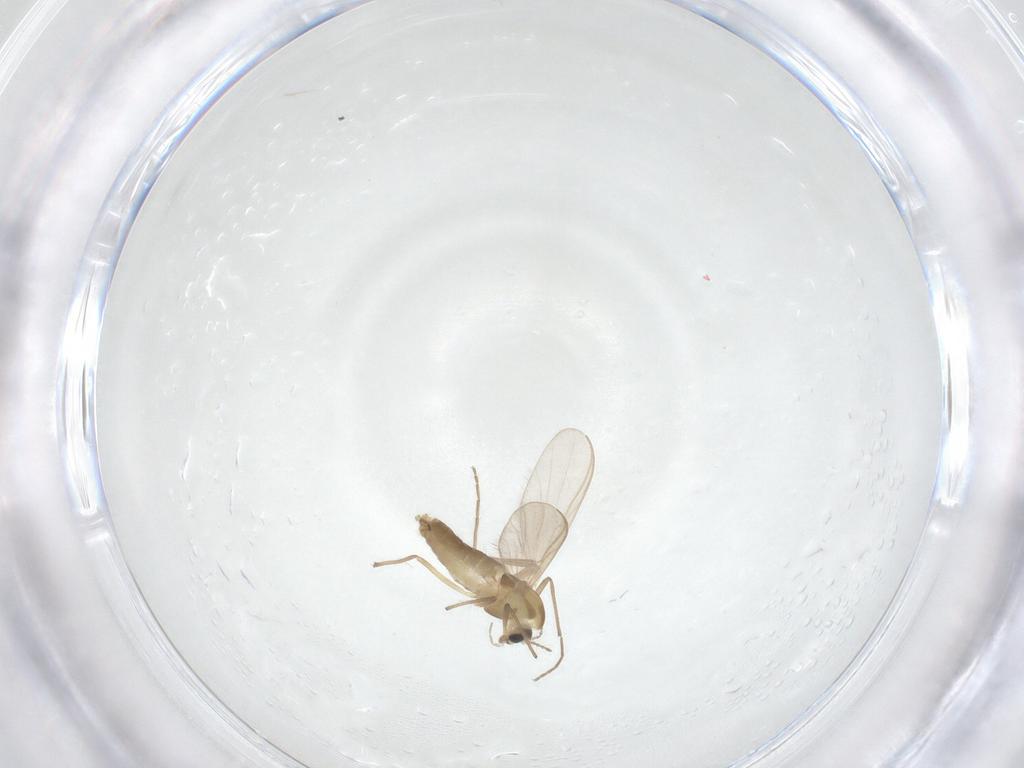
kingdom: Animalia
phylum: Arthropoda
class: Insecta
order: Diptera
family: Chironomidae
